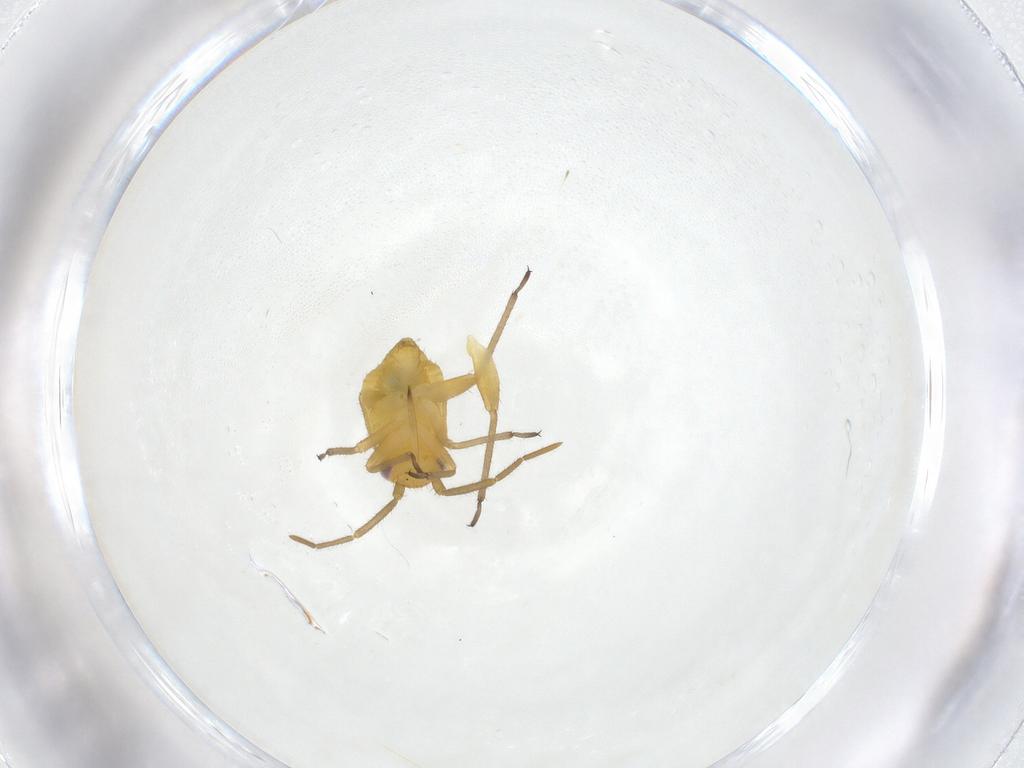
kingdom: Animalia
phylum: Arthropoda
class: Insecta
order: Hemiptera
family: Miridae
